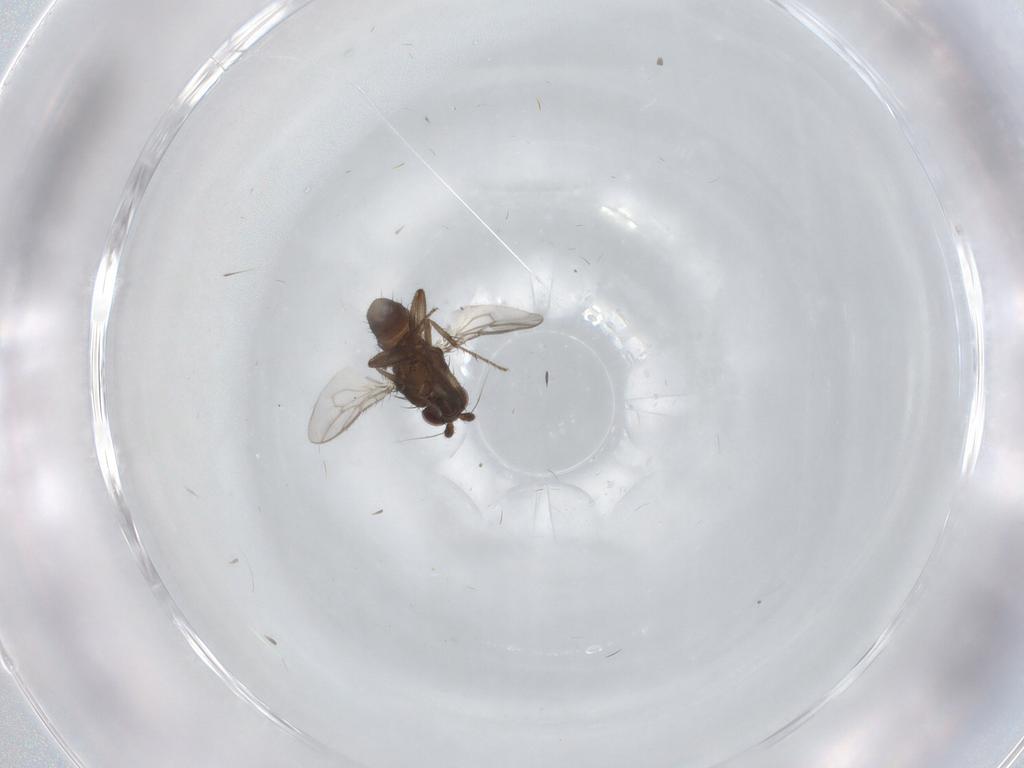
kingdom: Animalia
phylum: Arthropoda
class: Insecta
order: Diptera
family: Sphaeroceridae
